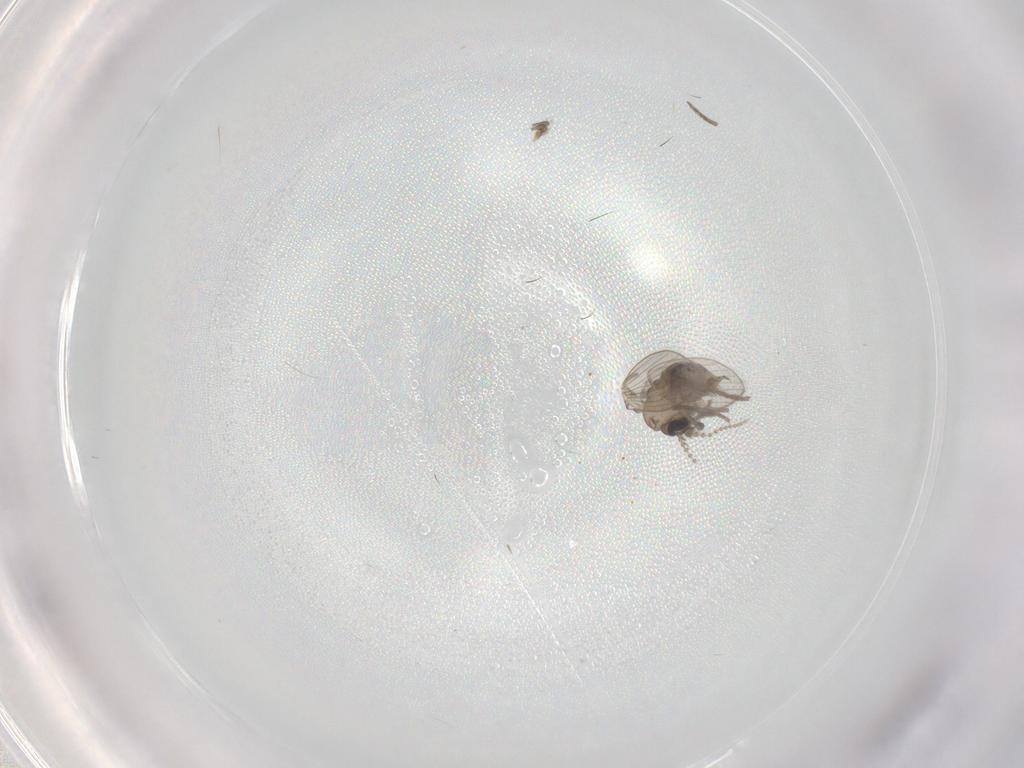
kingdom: Animalia
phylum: Arthropoda
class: Insecta
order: Diptera
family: Psychodidae
